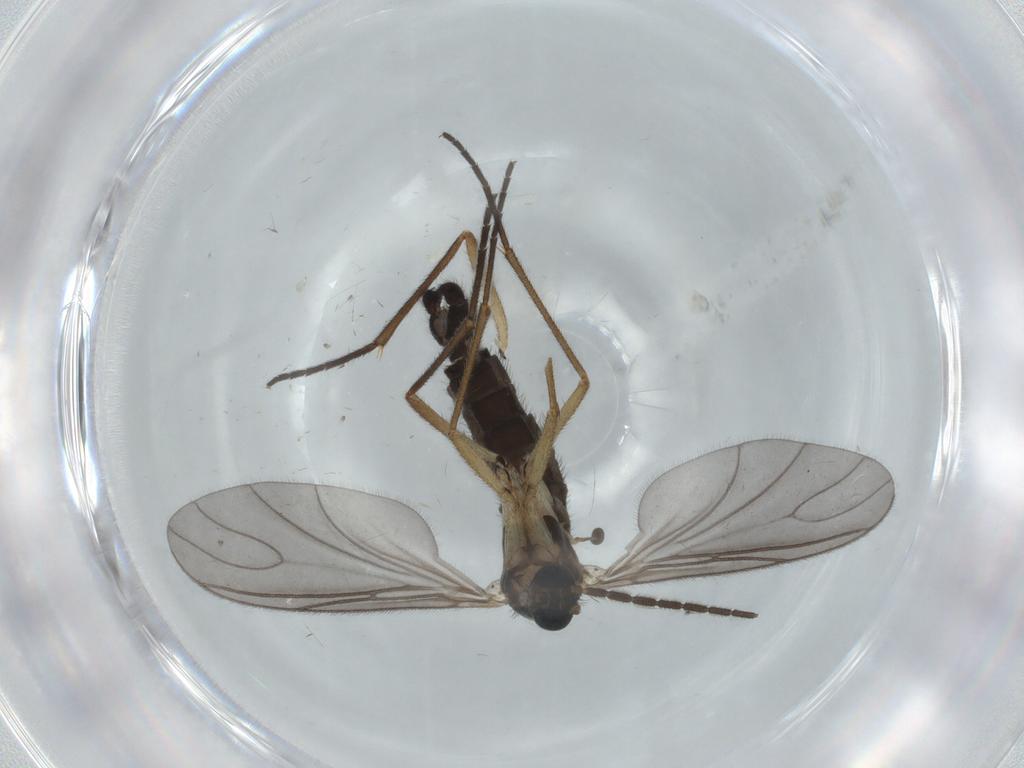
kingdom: Animalia
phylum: Arthropoda
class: Insecta
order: Diptera
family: Sciaridae
